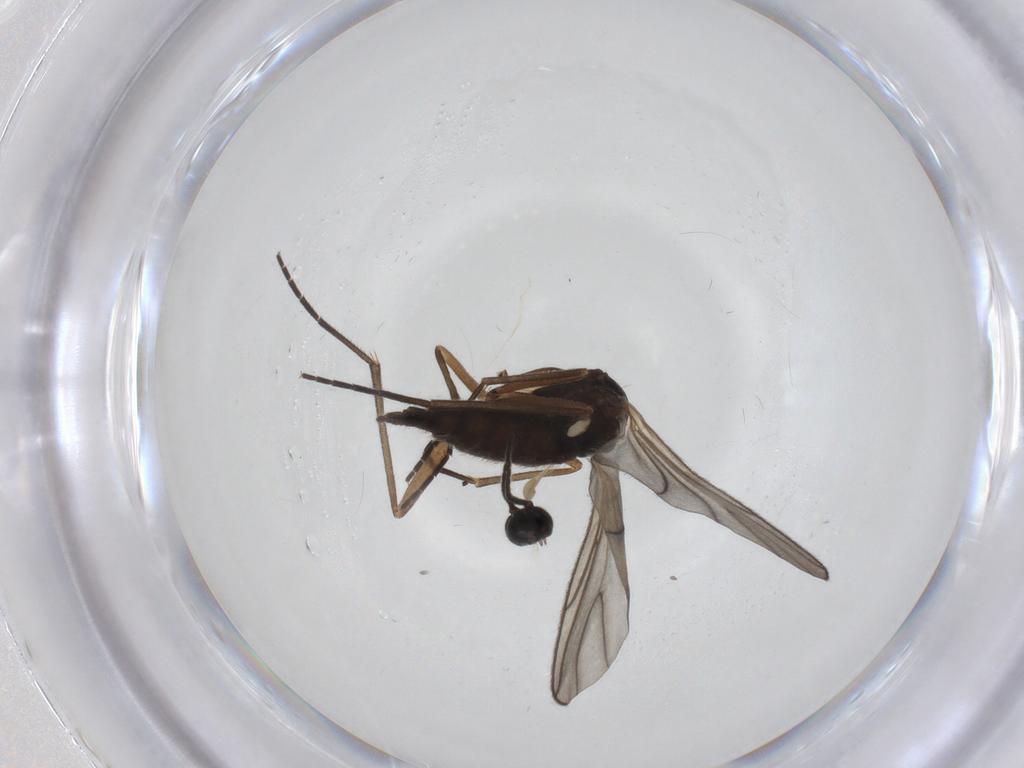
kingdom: Animalia
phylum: Arthropoda
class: Insecta
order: Diptera
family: Sciaridae
